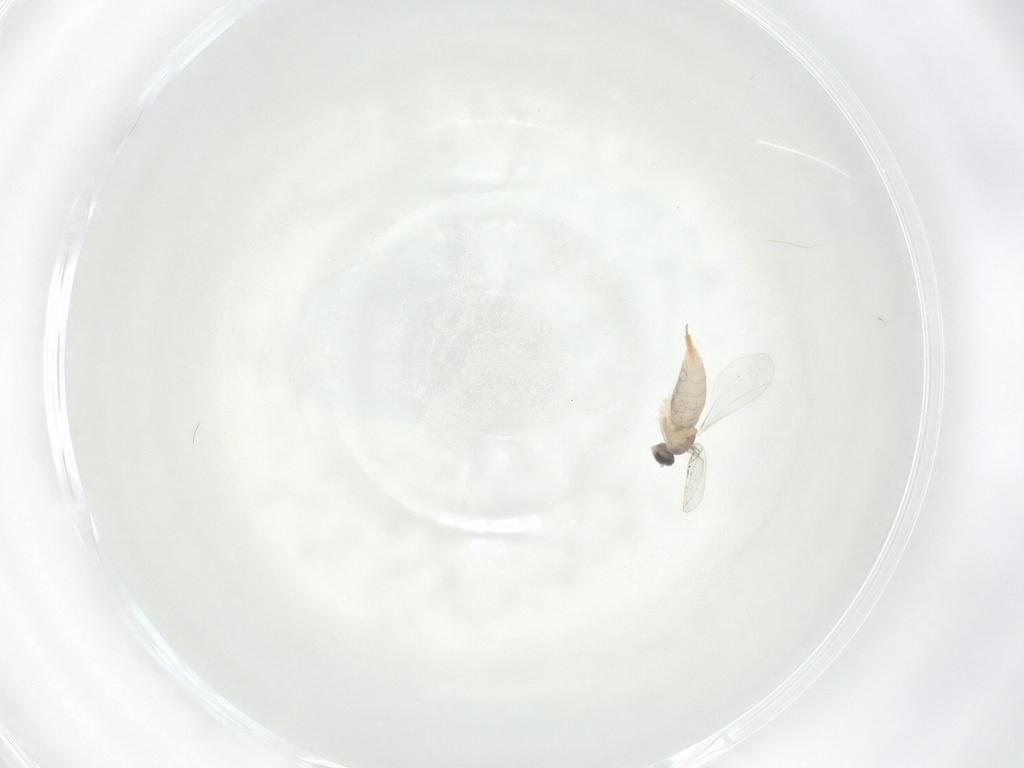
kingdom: Animalia
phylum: Arthropoda
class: Insecta
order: Diptera
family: Cecidomyiidae
